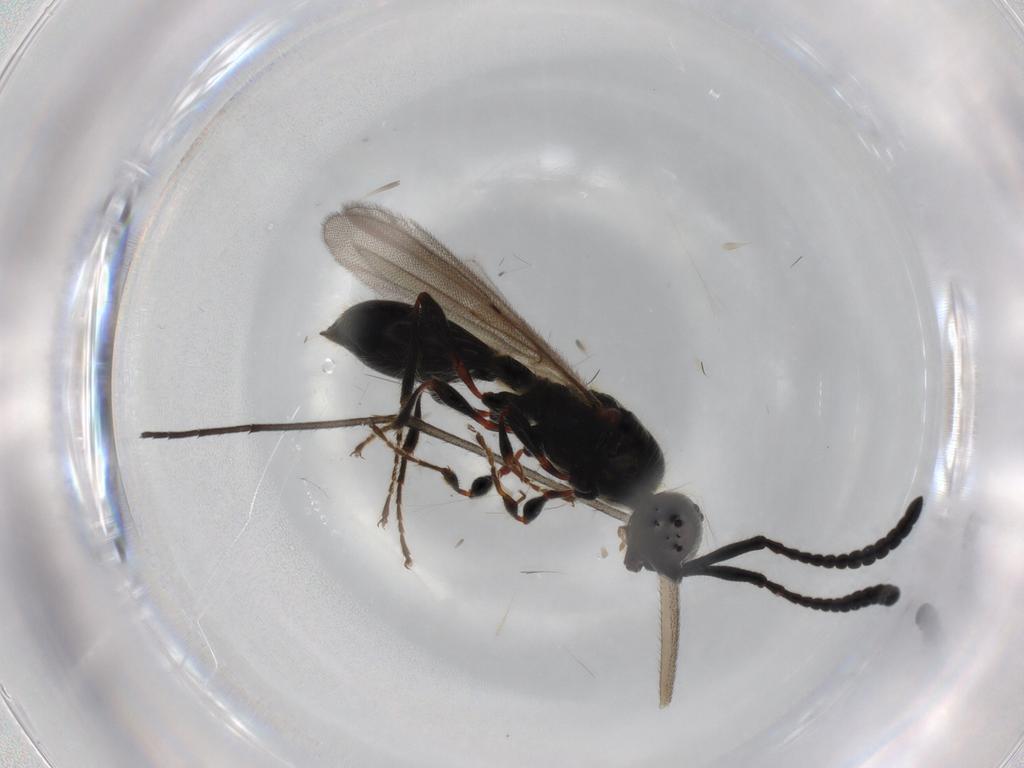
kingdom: Animalia
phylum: Arthropoda
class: Insecta
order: Hymenoptera
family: Diapriidae
